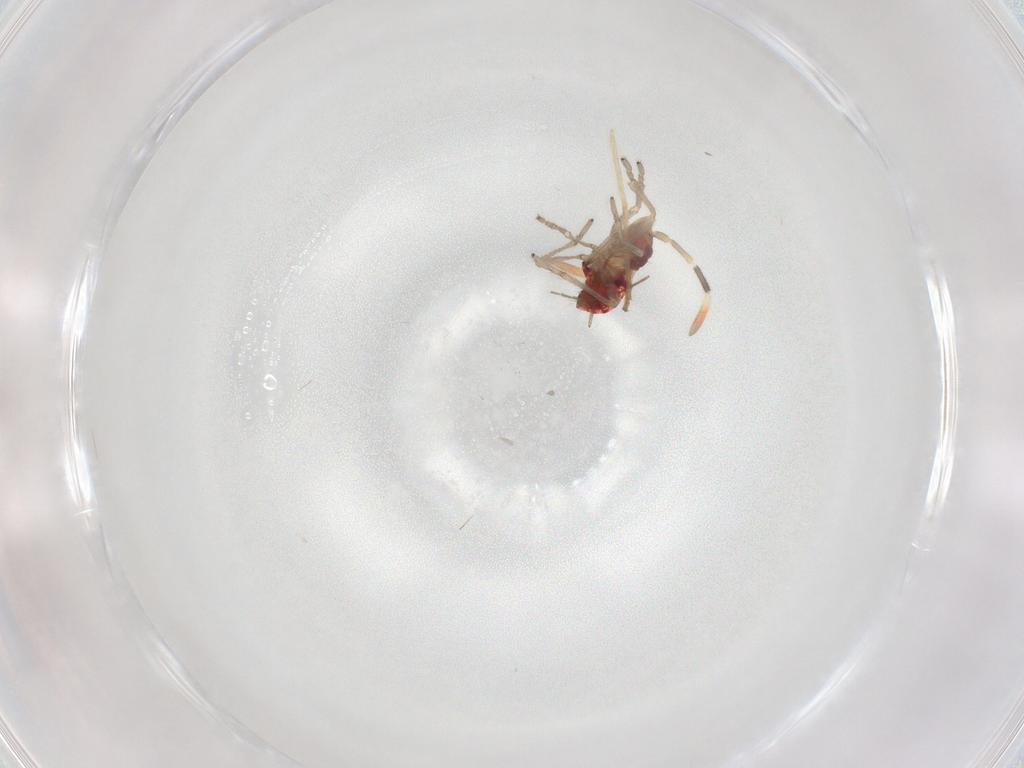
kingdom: Animalia
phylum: Arthropoda
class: Insecta
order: Hemiptera
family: Rhyparochromidae
